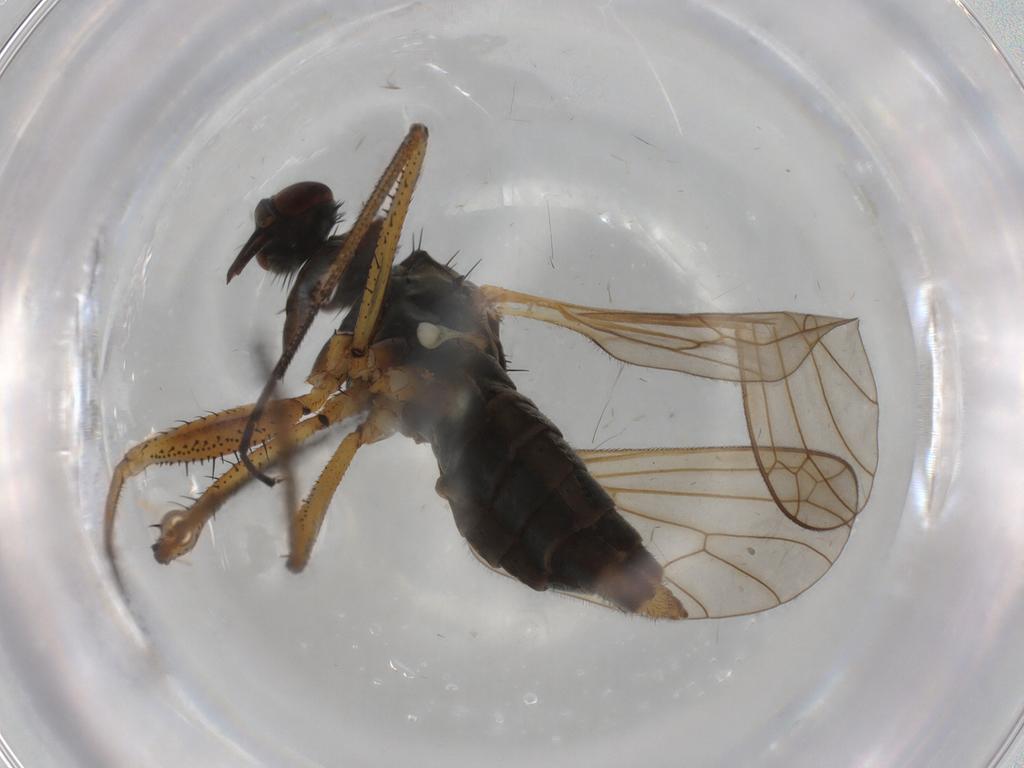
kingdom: Animalia
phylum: Arthropoda
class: Insecta
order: Diptera
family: Empididae
